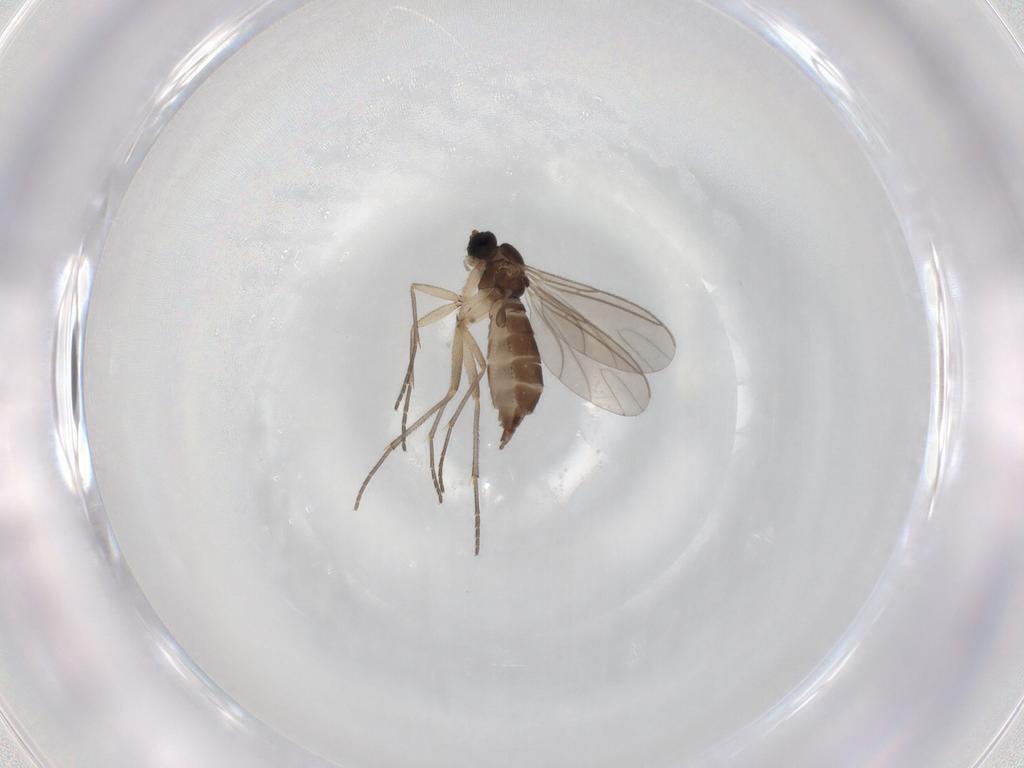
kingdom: Animalia
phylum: Arthropoda
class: Insecta
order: Diptera
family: Sciaridae
